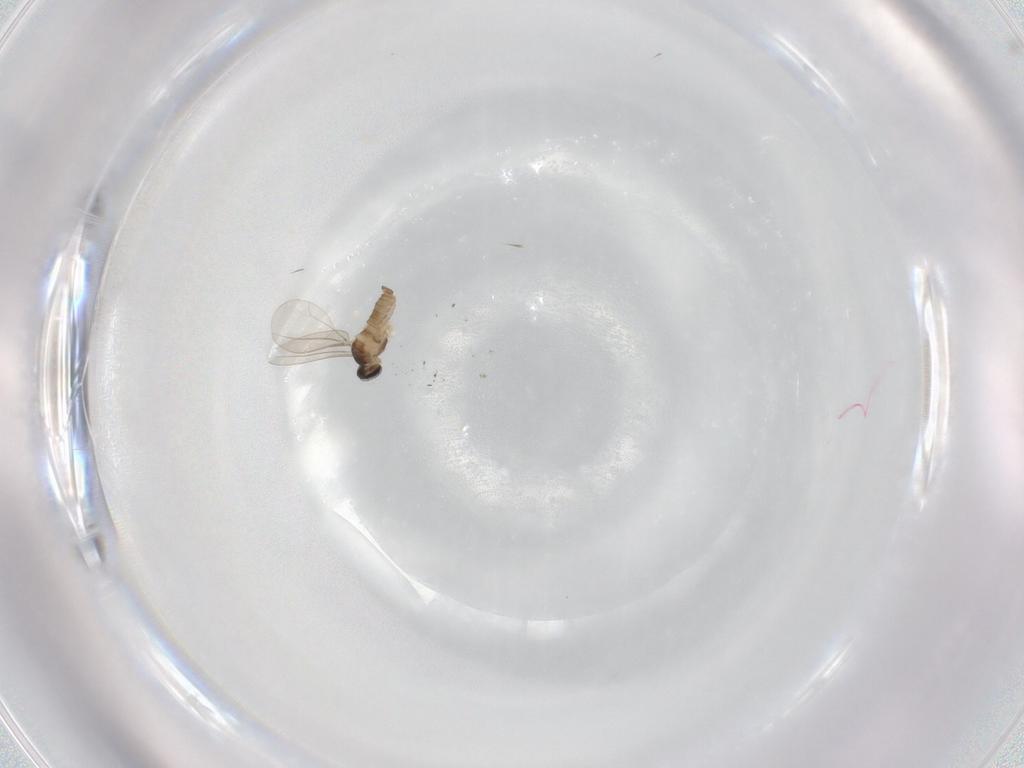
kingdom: Animalia
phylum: Arthropoda
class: Insecta
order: Diptera
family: Cecidomyiidae
